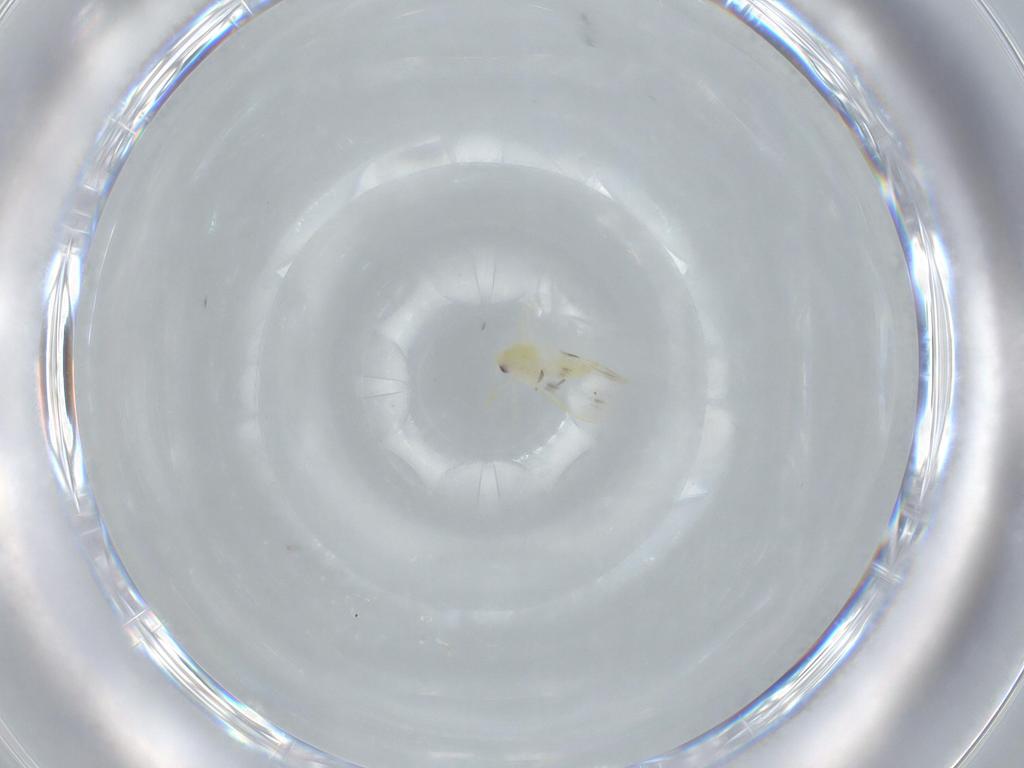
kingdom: Animalia
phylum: Arthropoda
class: Insecta
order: Hemiptera
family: Aleyrodidae
